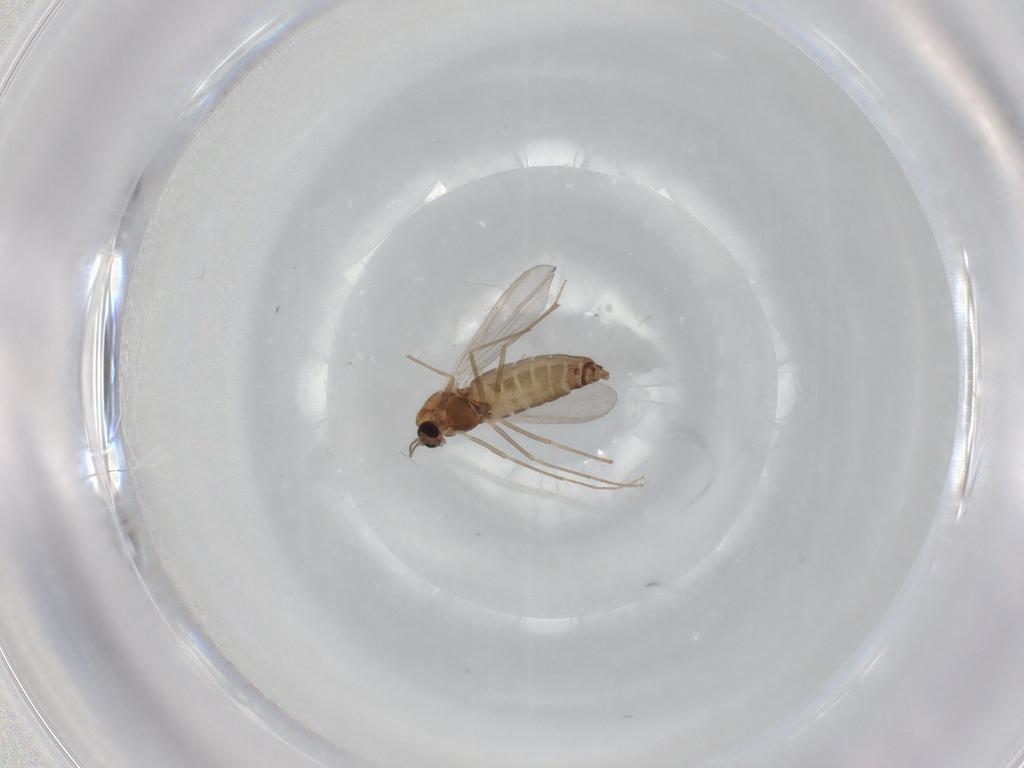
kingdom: Animalia
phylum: Arthropoda
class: Insecta
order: Diptera
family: Chironomidae
